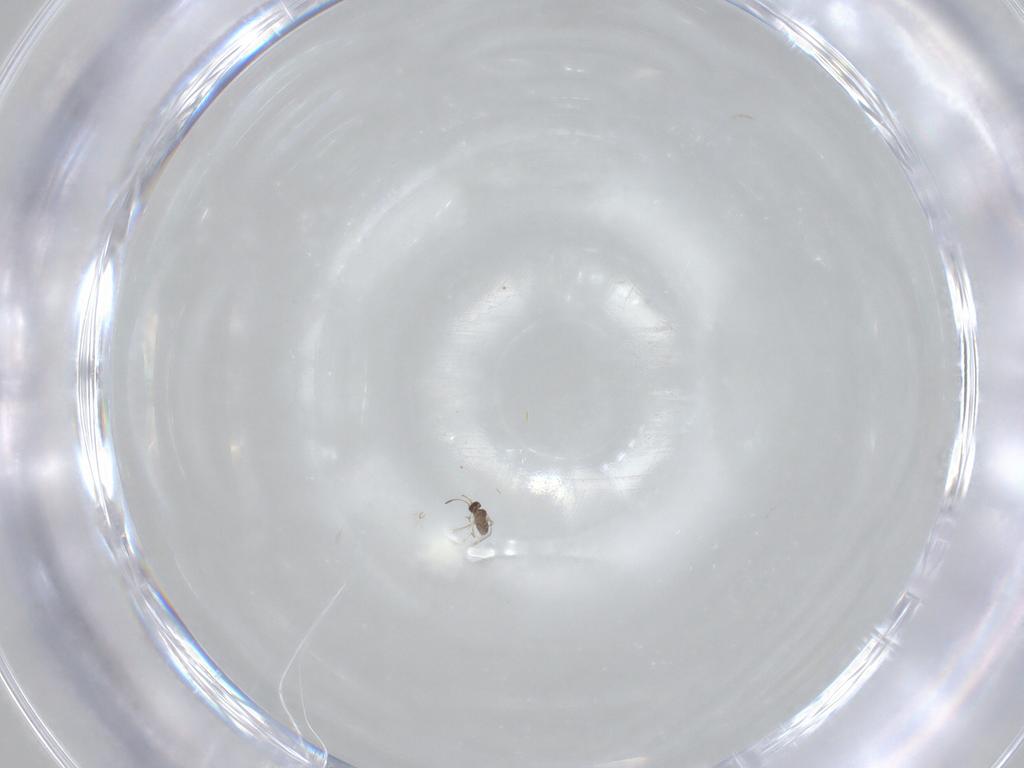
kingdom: Animalia
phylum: Arthropoda
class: Insecta
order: Hymenoptera
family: Eulophidae
